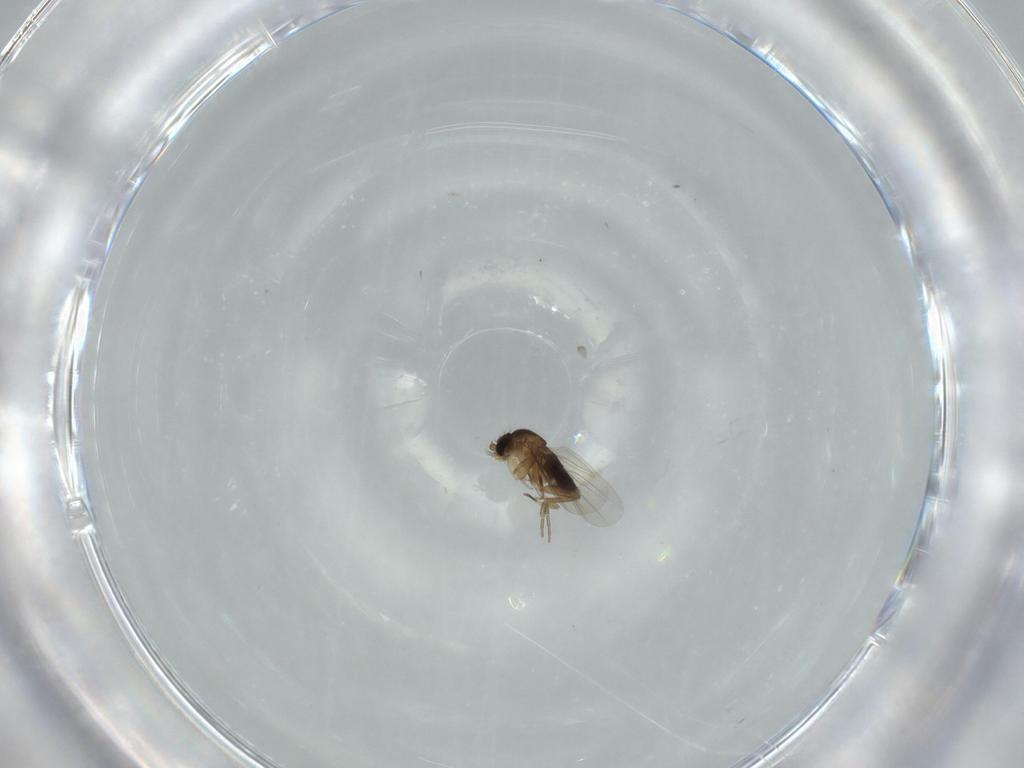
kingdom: Animalia
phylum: Arthropoda
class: Insecta
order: Diptera
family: Phoridae
